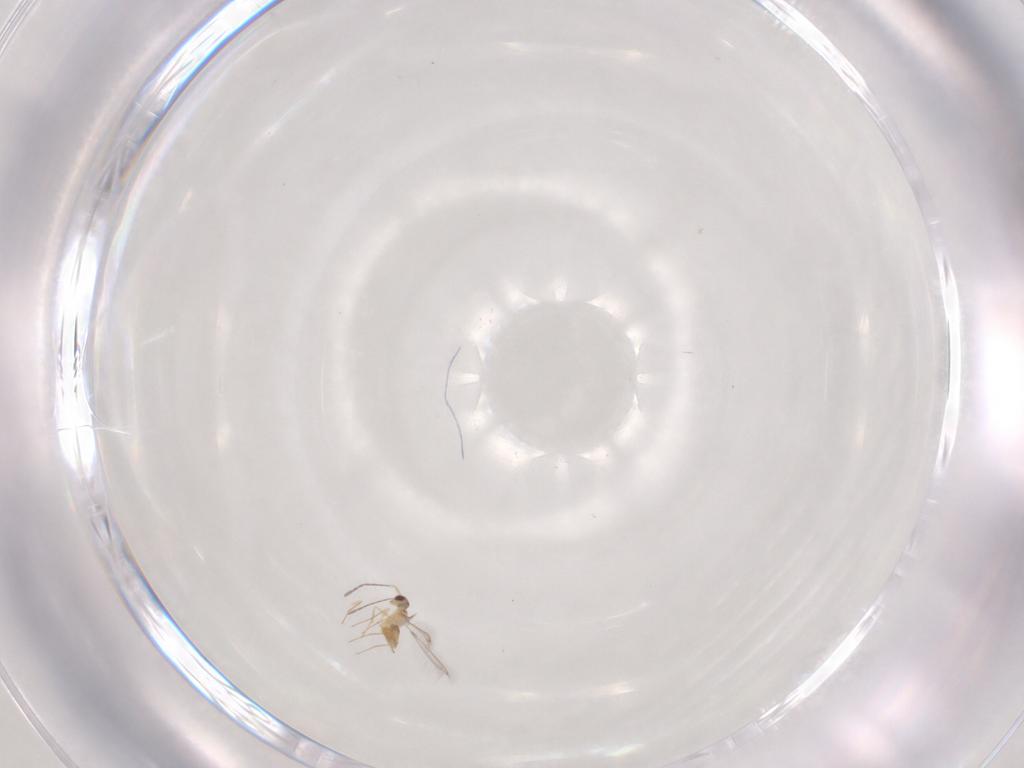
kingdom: Animalia
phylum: Arthropoda
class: Insecta
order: Hymenoptera
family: Mymaridae
